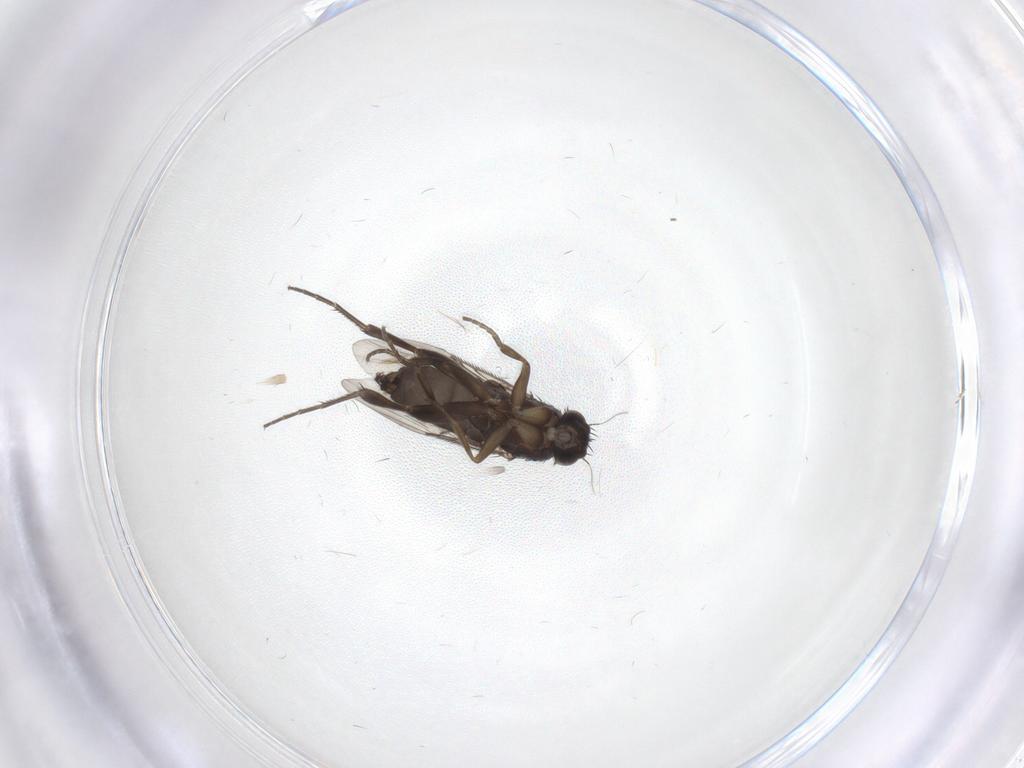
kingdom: Animalia
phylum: Arthropoda
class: Insecta
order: Diptera
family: Phoridae
